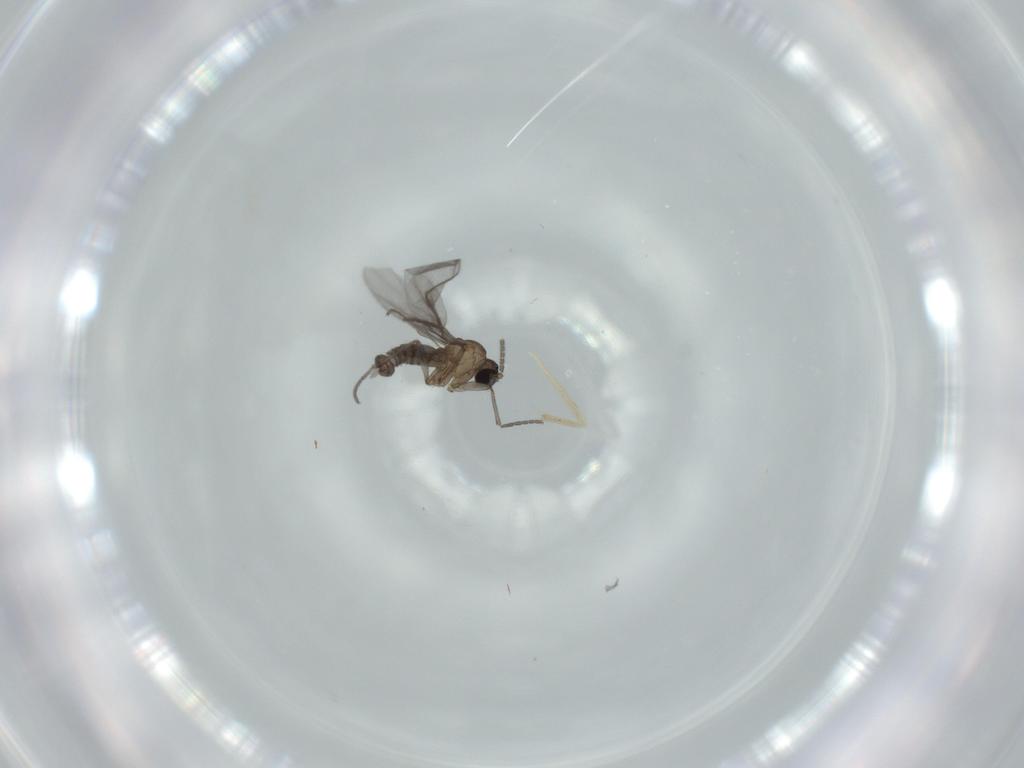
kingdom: Animalia
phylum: Arthropoda
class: Insecta
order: Diptera
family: Sciaridae
